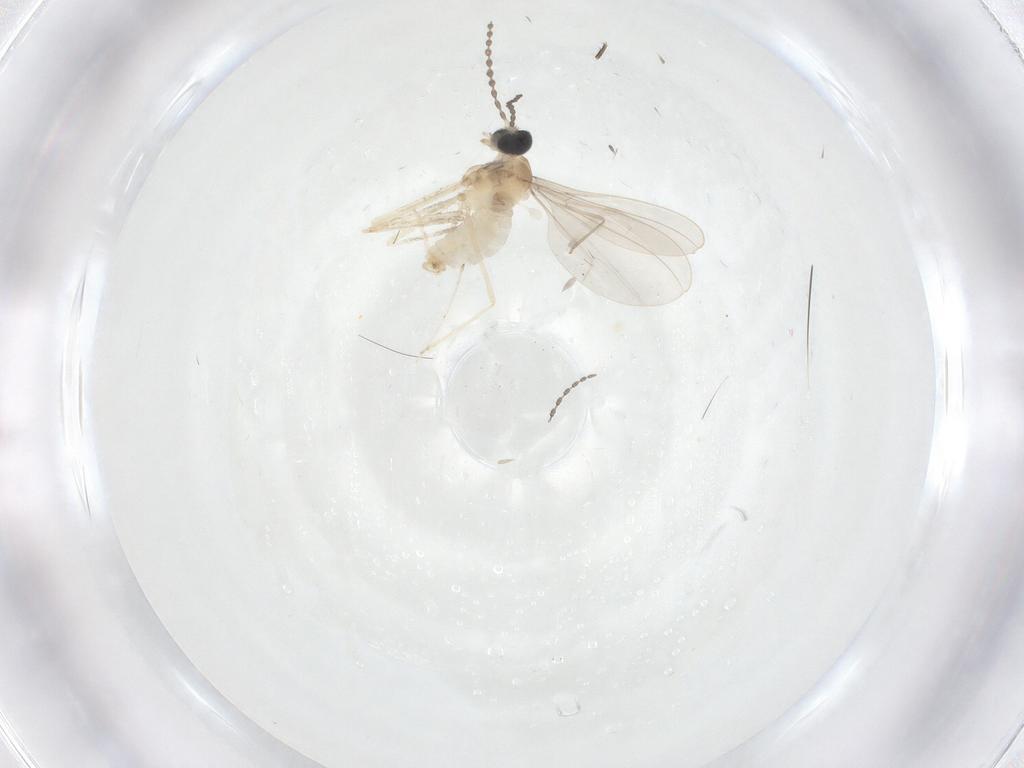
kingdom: Animalia
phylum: Arthropoda
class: Insecta
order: Diptera
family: Cecidomyiidae
